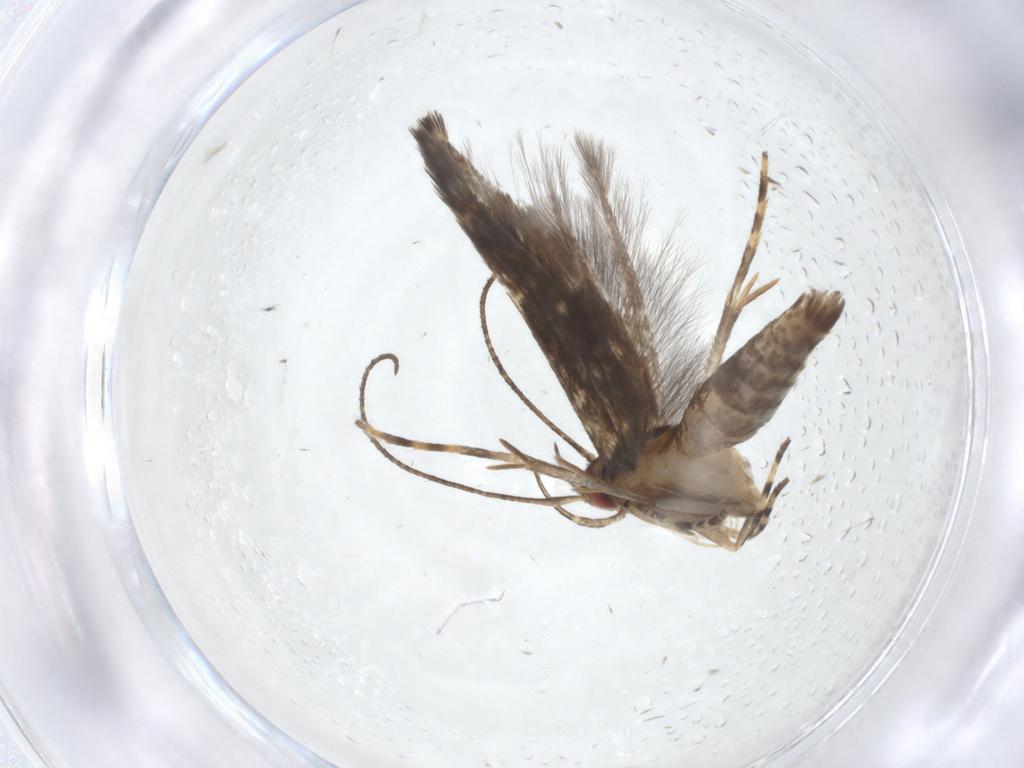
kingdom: Animalia
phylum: Arthropoda
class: Insecta
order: Lepidoptera
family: Cosmopterigidae
